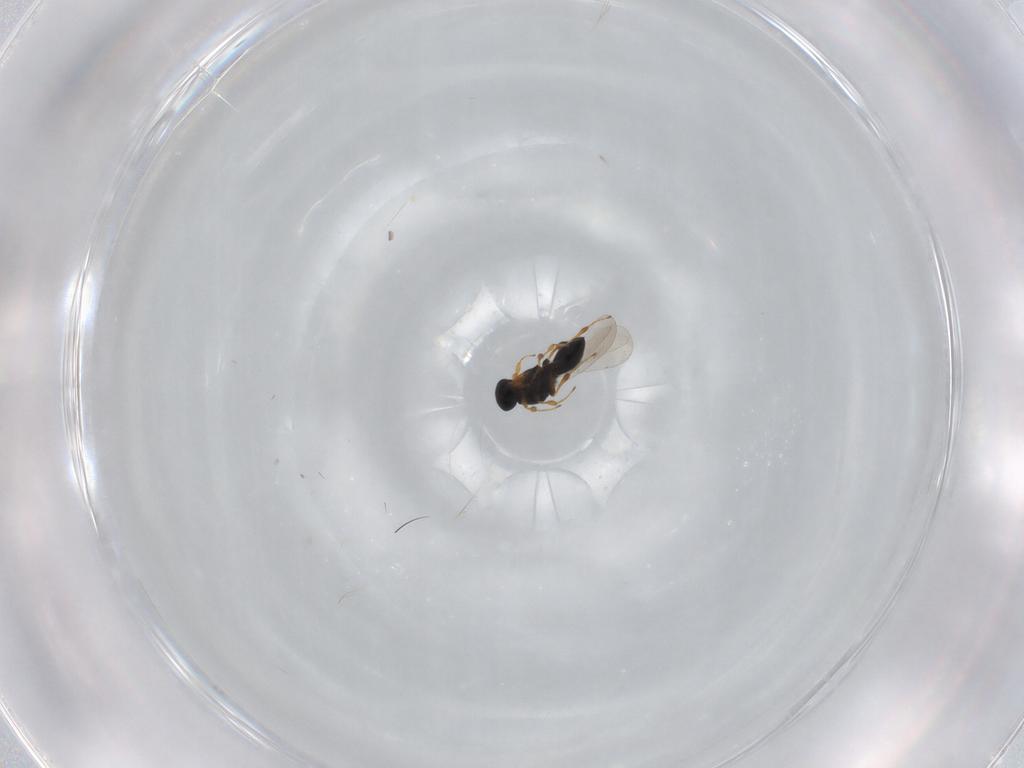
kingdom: Animalia
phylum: Arthropoda
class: Insecta
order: Hymenoptera
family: Platygastridae
